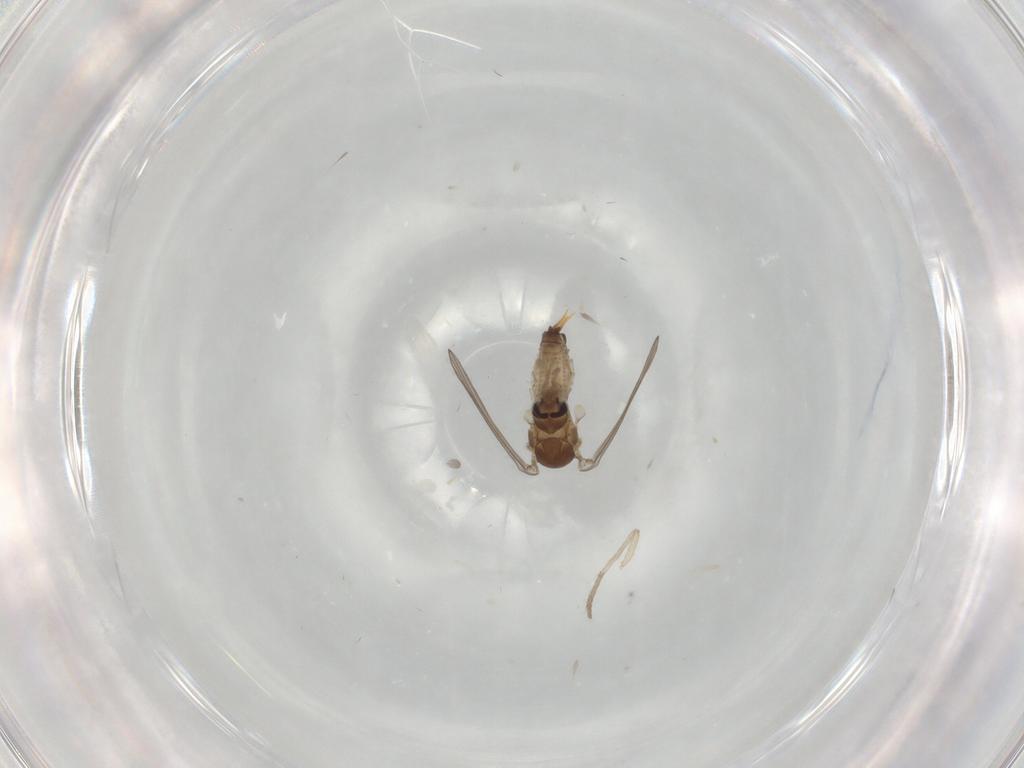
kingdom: Animalia
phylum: Arthropoda
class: Insecta
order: Diptera
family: Psychodidae
